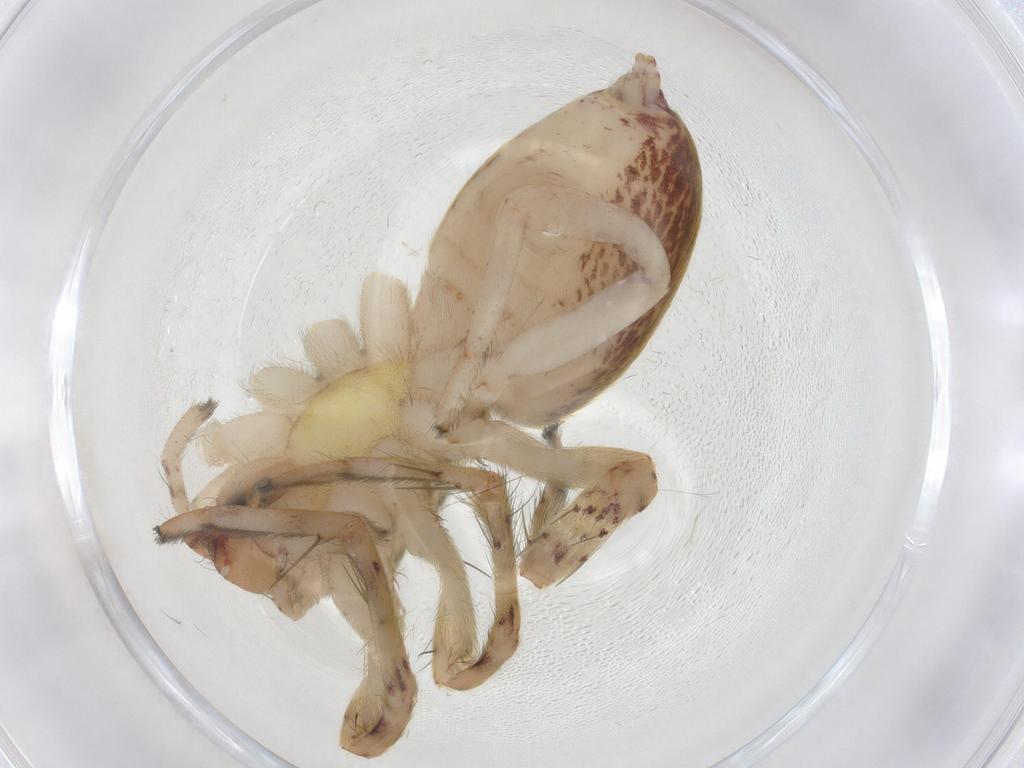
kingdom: Animalia
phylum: Arthropoda
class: Arachnida
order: Araneae
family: Anyphaenidae
